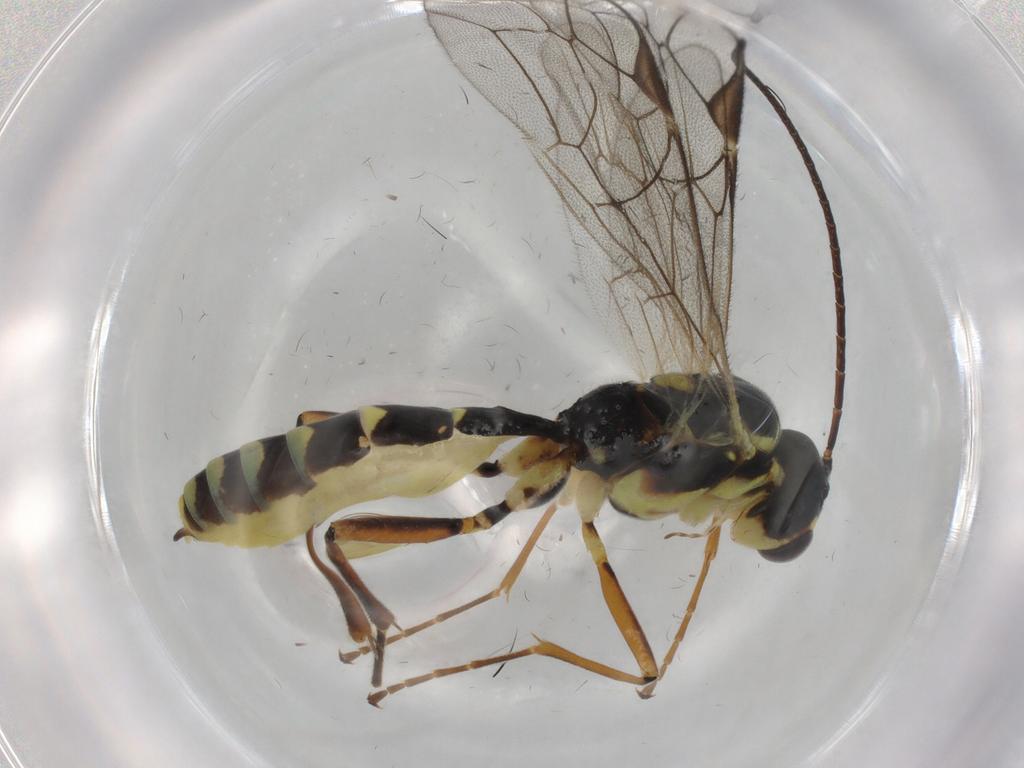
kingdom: Animalia
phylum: Arthropoda
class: Insecta
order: Hymenoptera
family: Ichneumonidae
